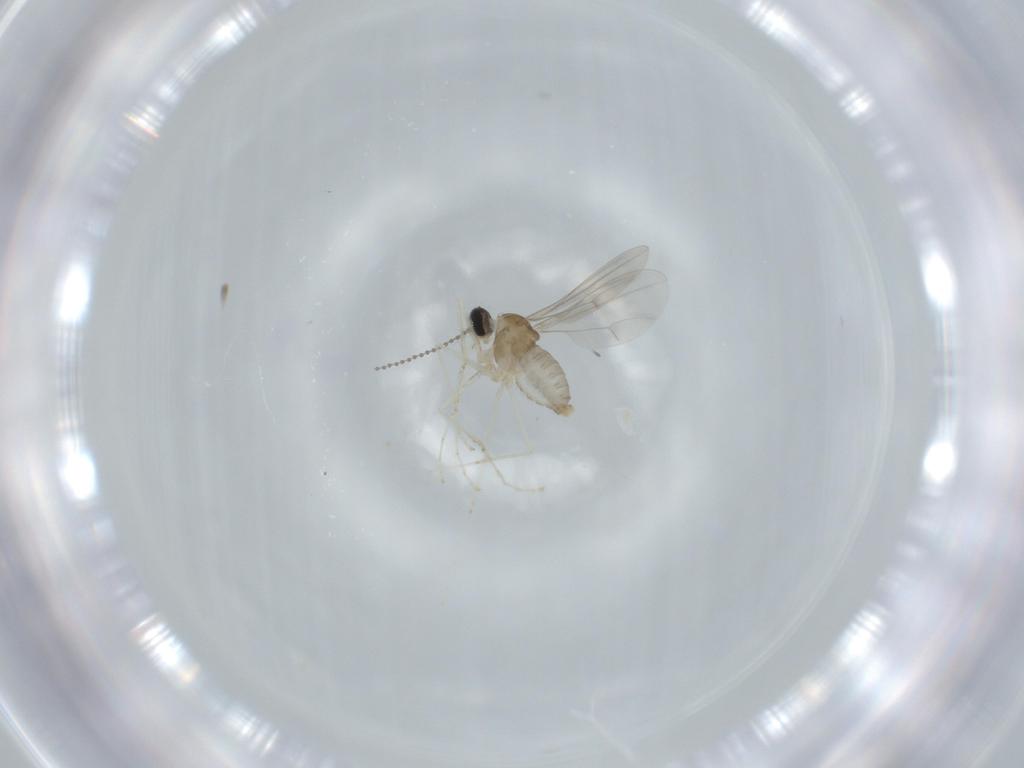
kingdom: Animalia
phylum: Arthropoda
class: Insecta
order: Diptera
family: Cecidomyiidae
